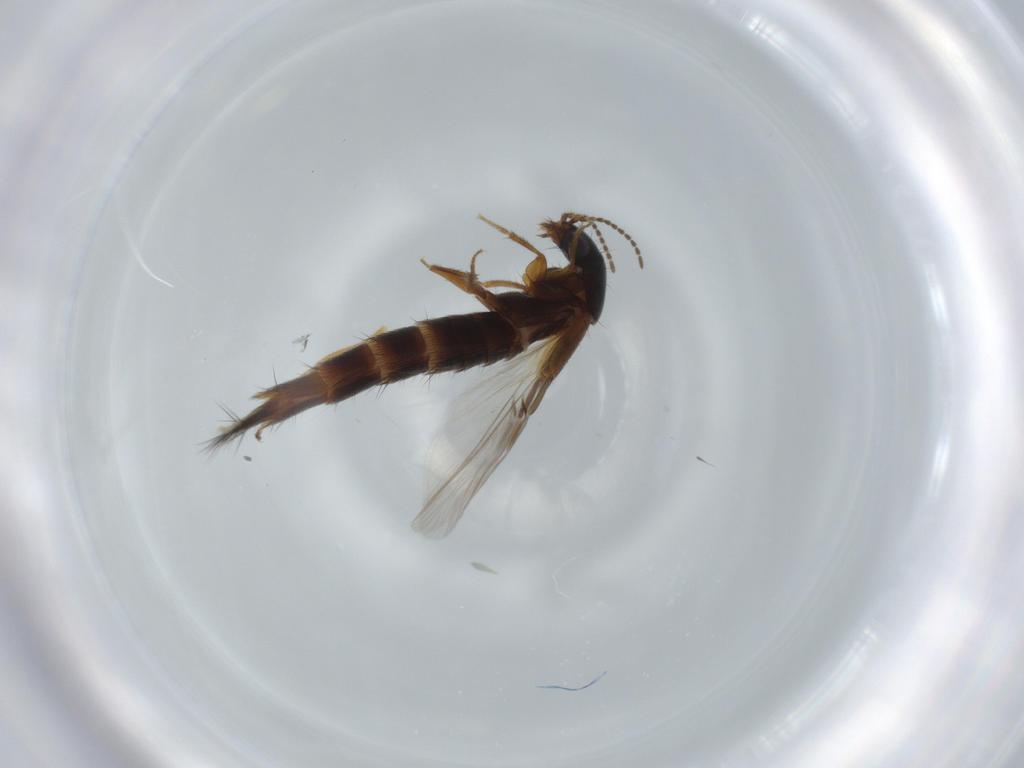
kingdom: Animalia
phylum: Arthropoda
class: Insecta
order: Coleoptera
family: Staphylinidae
